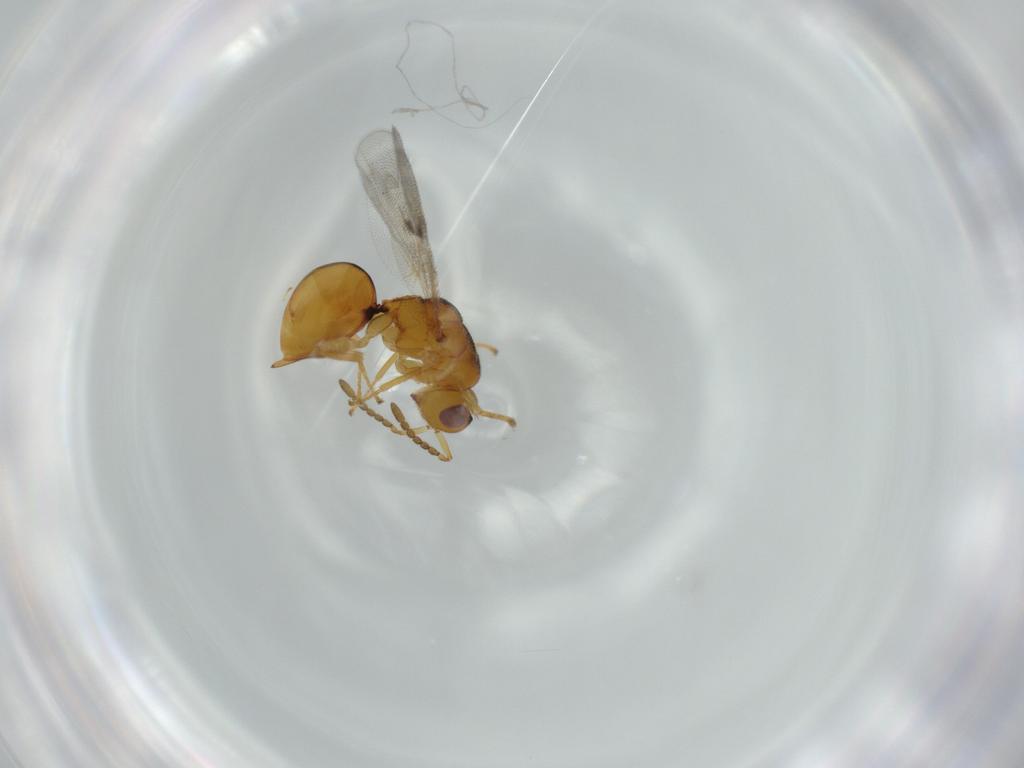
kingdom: Animalia
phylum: Arthropoda
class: Insecta
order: Hymenoptera
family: Eurytomidae
